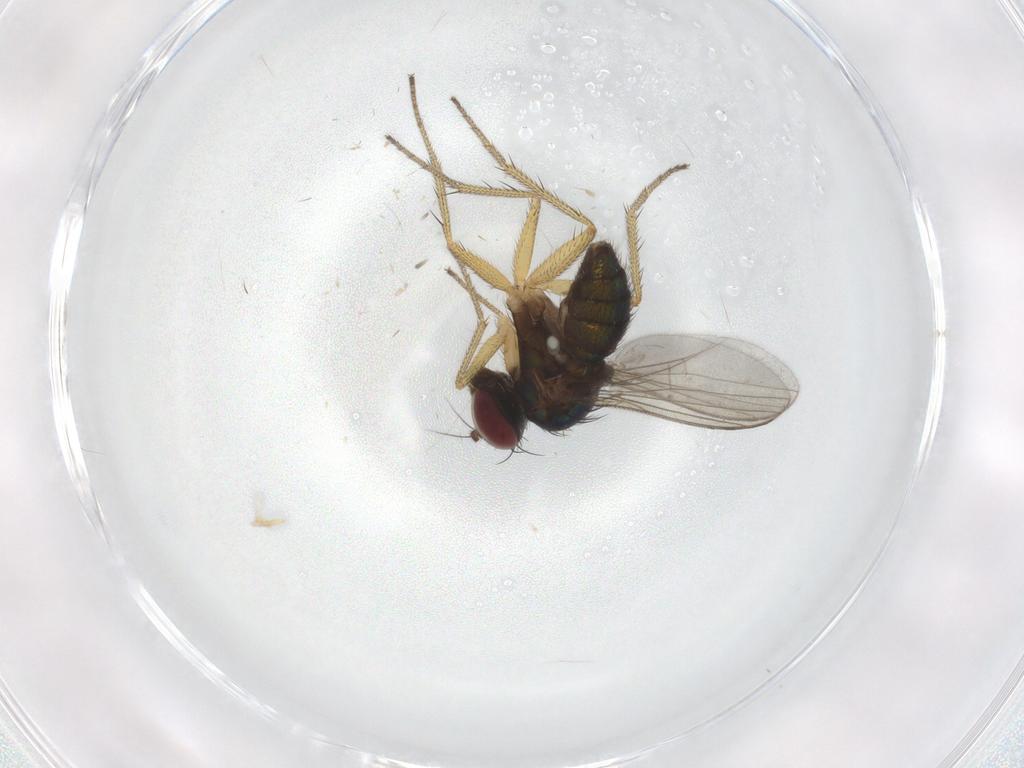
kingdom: Animalia
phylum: Arthropoda
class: Insecta
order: Diptera
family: Dolichopodidae
